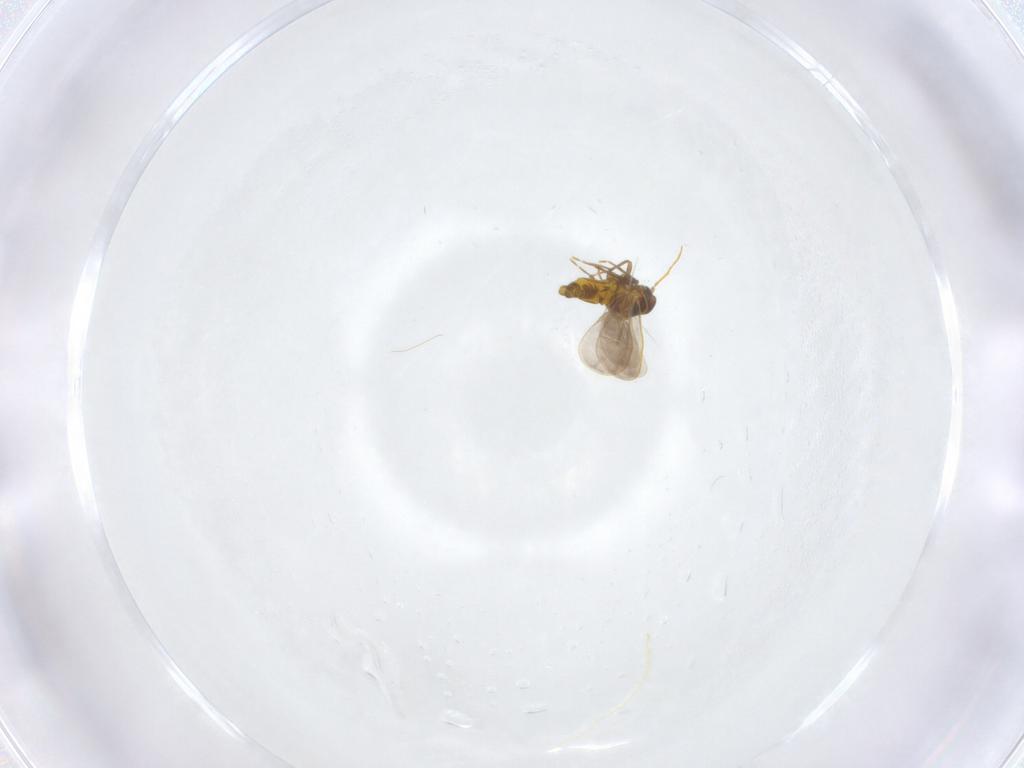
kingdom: Animalia
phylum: Arthropoda
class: Insecta
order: Hemiptera
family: Aleyrodidae
